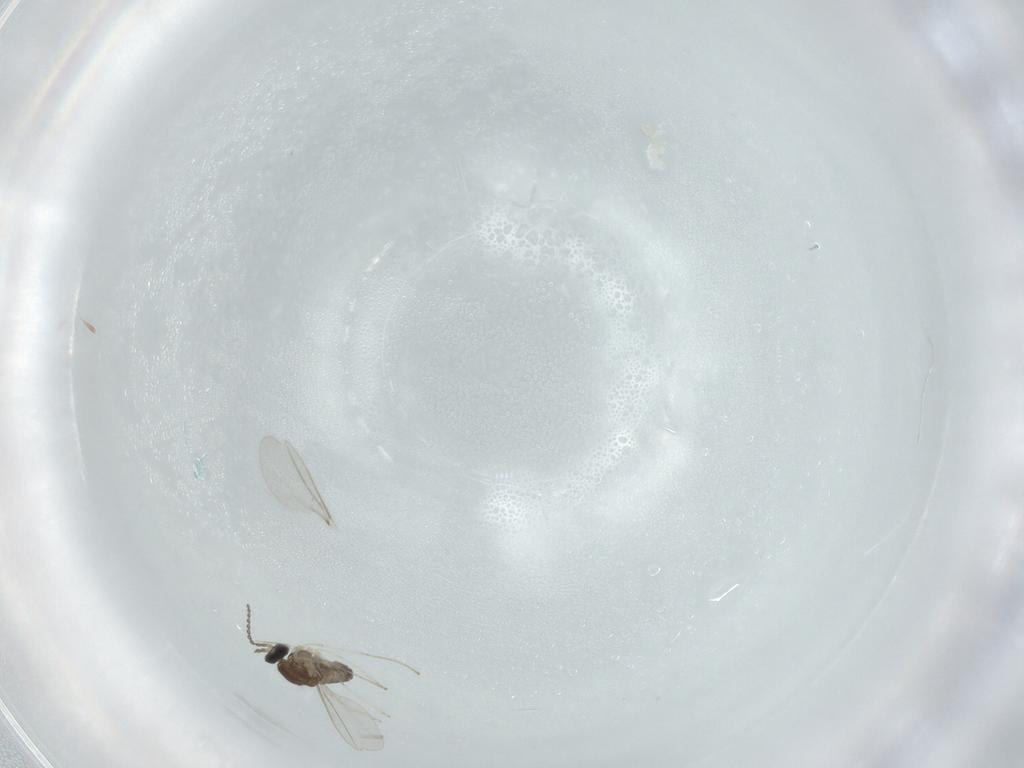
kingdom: Animalia
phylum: Arthropoda
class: Insecta
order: Diptera
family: Cecidomyiidae
